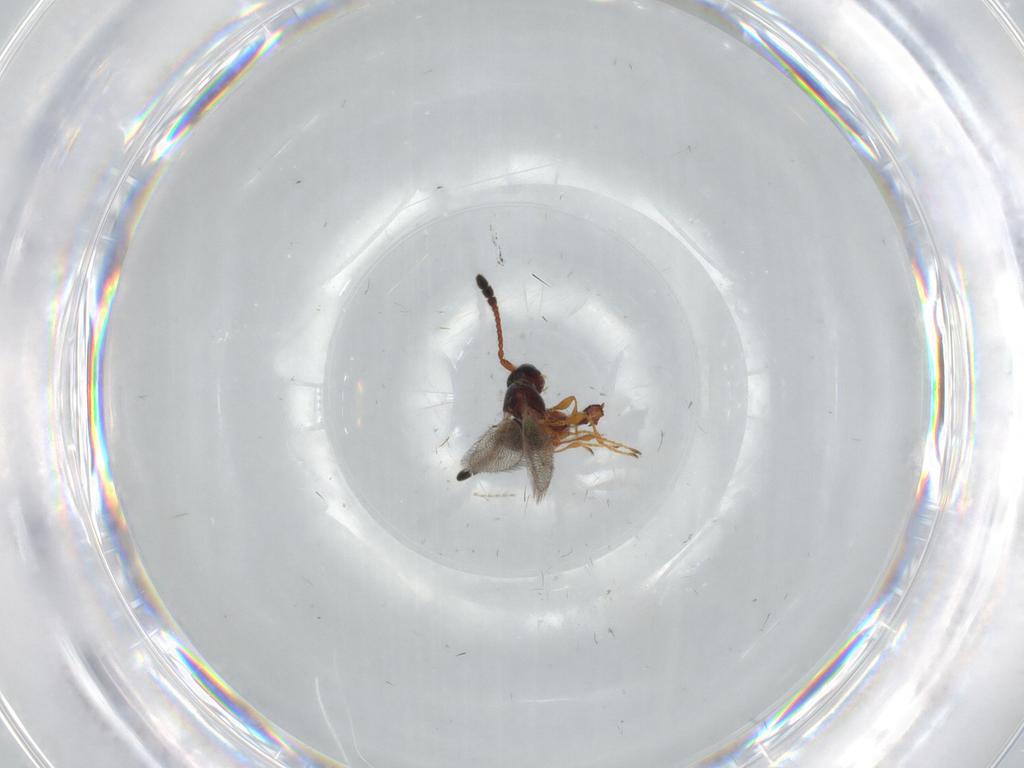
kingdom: Animalia
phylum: Arthropoda
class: Insecta
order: Hymenoptera
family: Diapriidae
